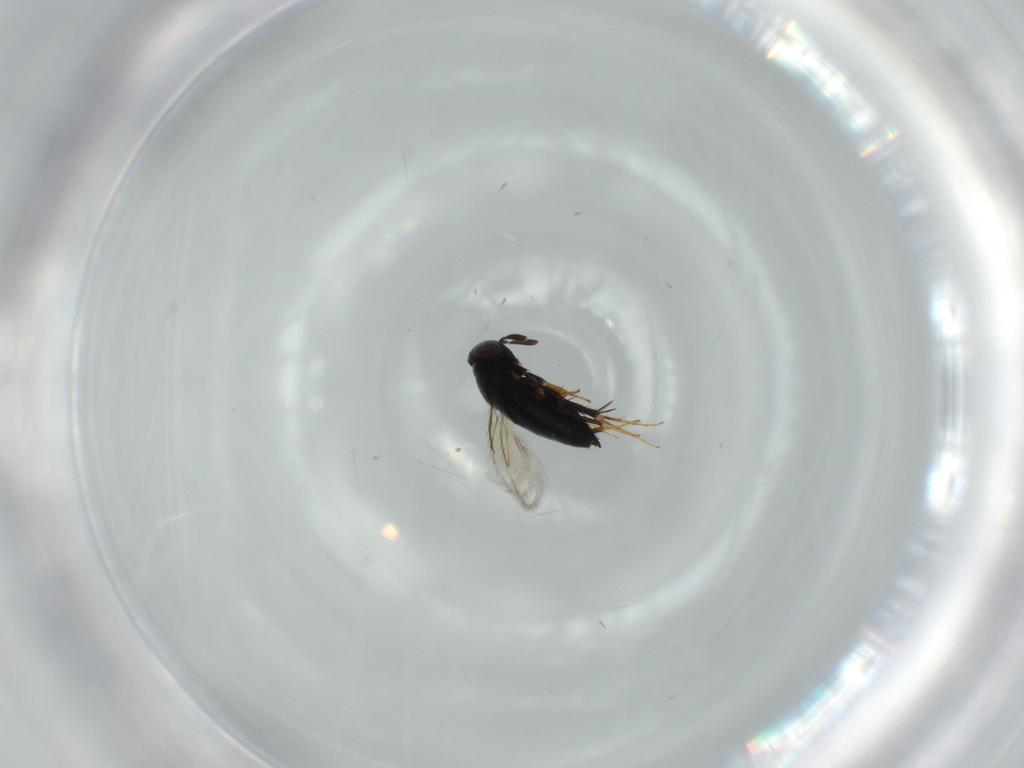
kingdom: Animalia
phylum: Arthropoda
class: Insecta
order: Hymenoptera
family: Signiphoridae
